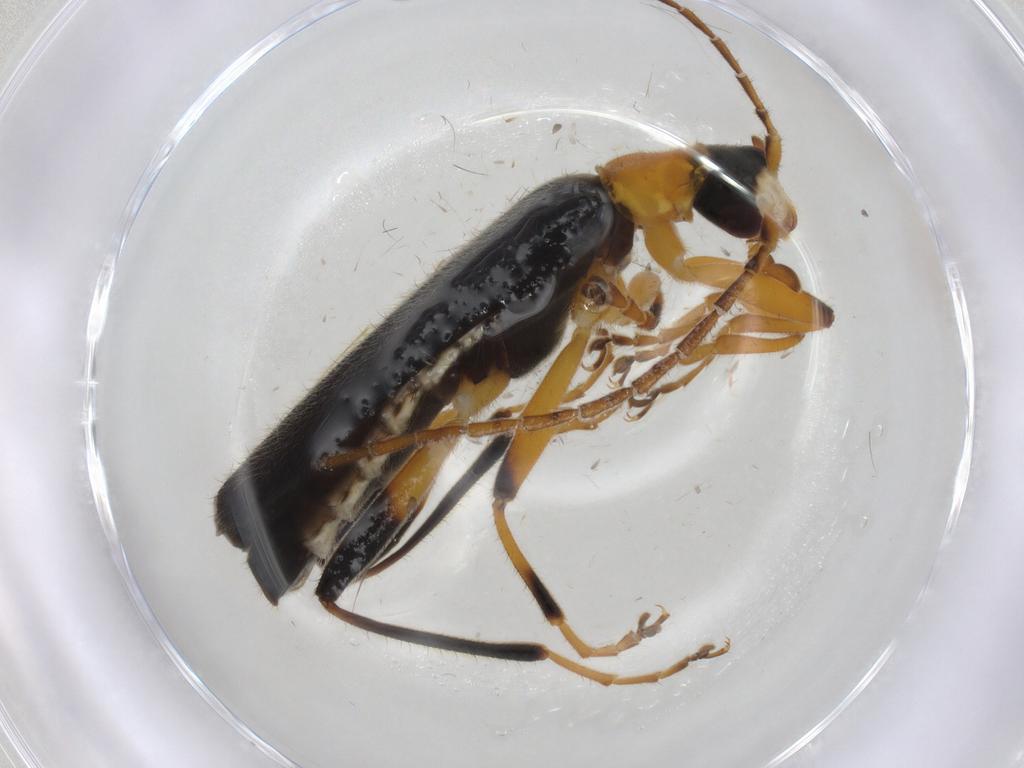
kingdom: Animalia
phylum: Arthropoda
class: Insecta
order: Coleoptera
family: Cantharidae
